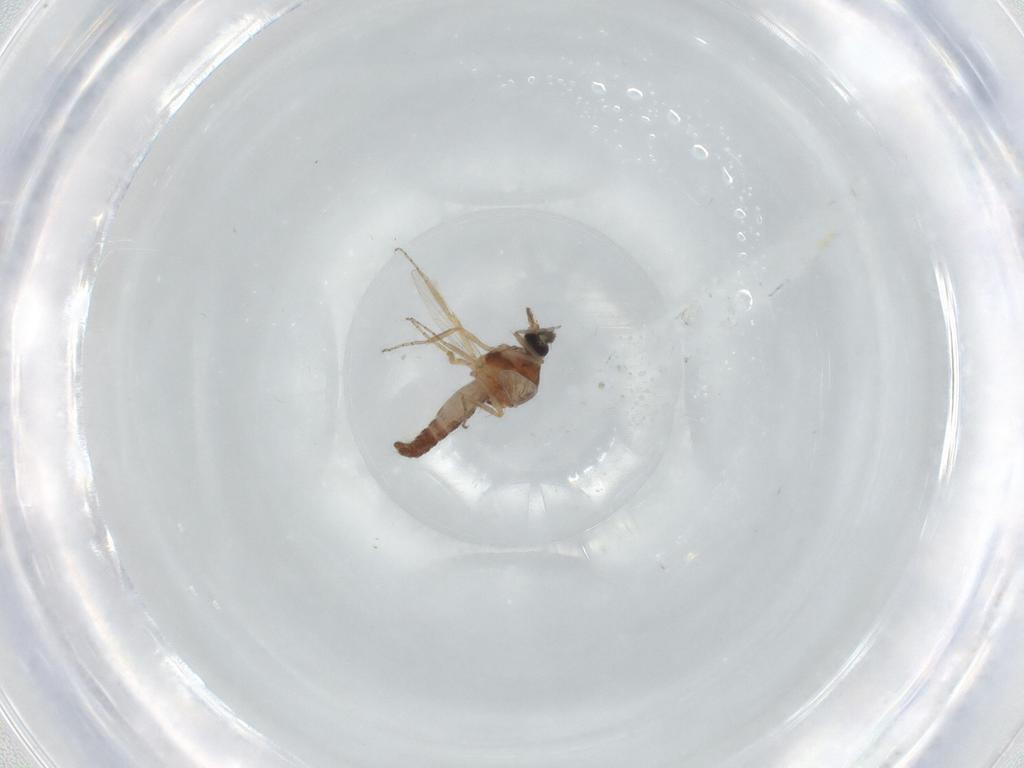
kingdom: Animalia
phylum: Arthropoda
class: Insecta
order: Diptera
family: Ceratopogonidae
